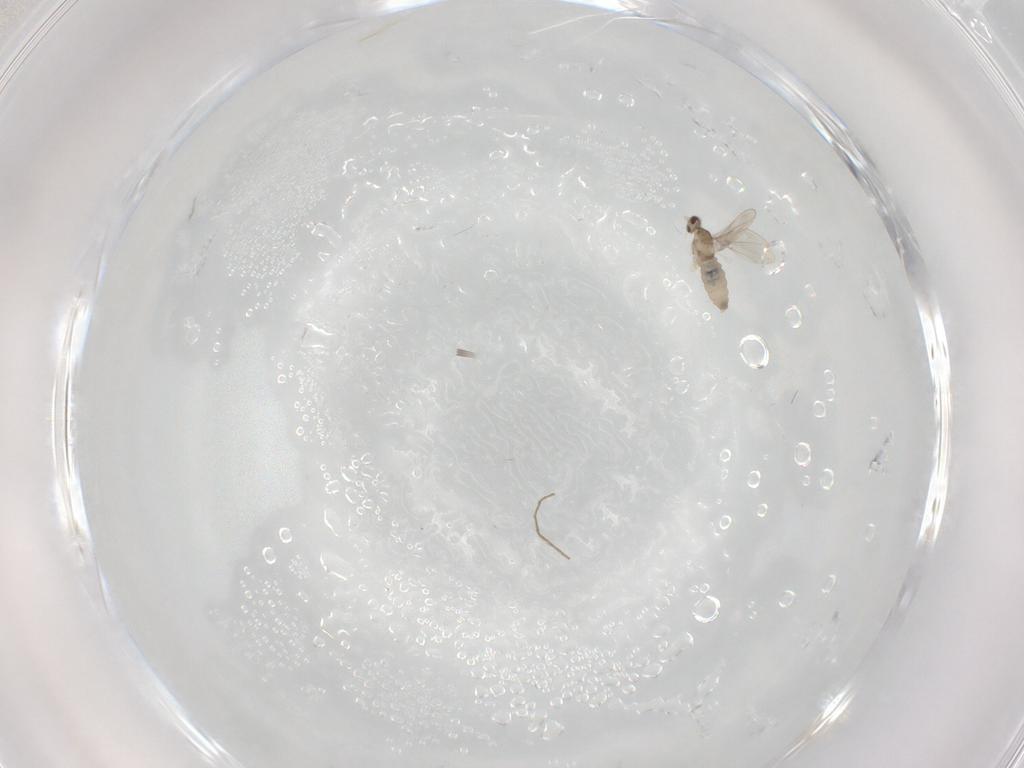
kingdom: Animalia
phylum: Arthropoda
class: Insecta
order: Diptera
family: Cecidomyiidae
